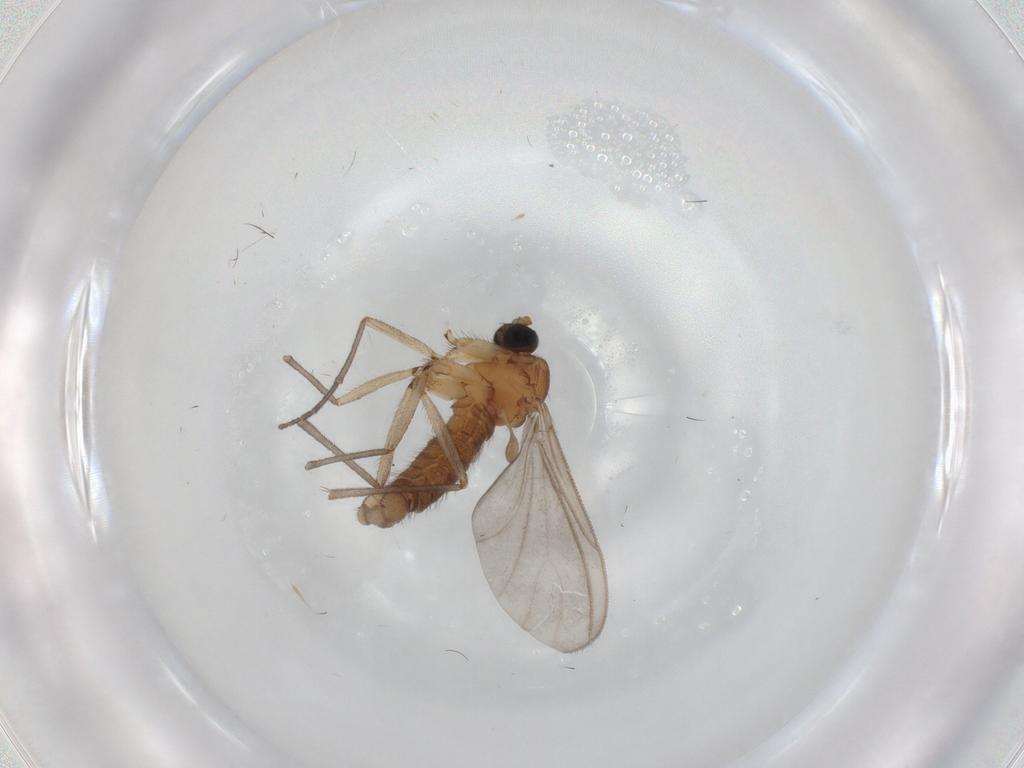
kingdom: Animalia
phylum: Arthropoda
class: Insecta
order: Diptera
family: Sciaridae
